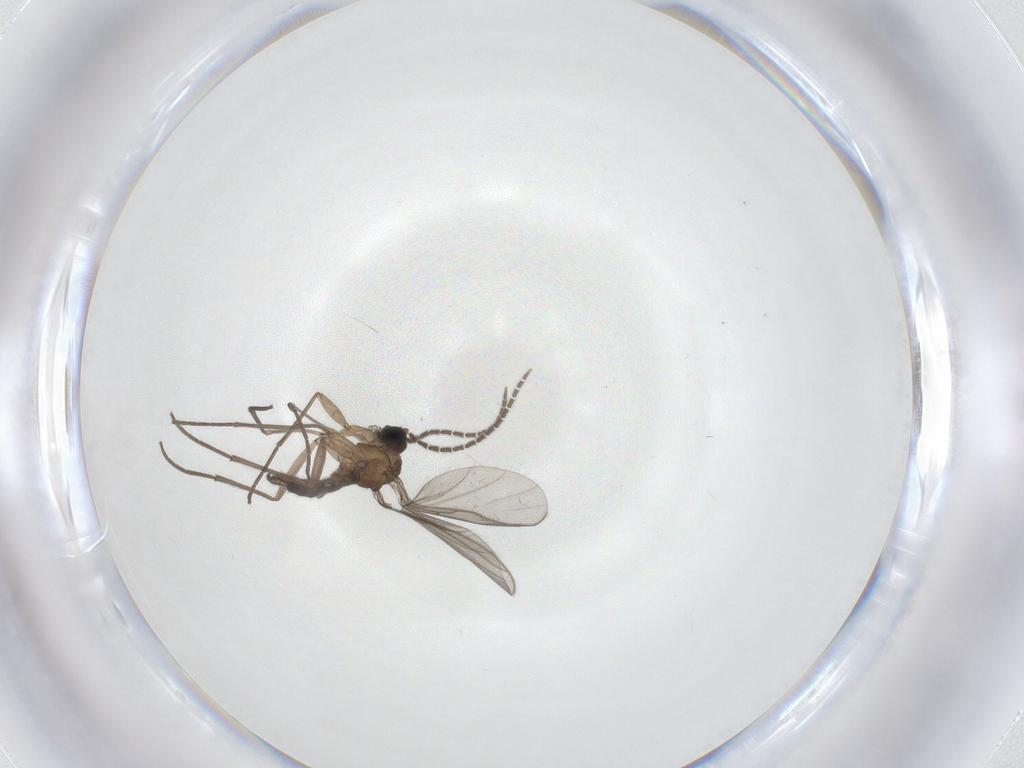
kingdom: Animalia
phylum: Arthropoda
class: Insecta
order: Diptera
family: Sciaridae
